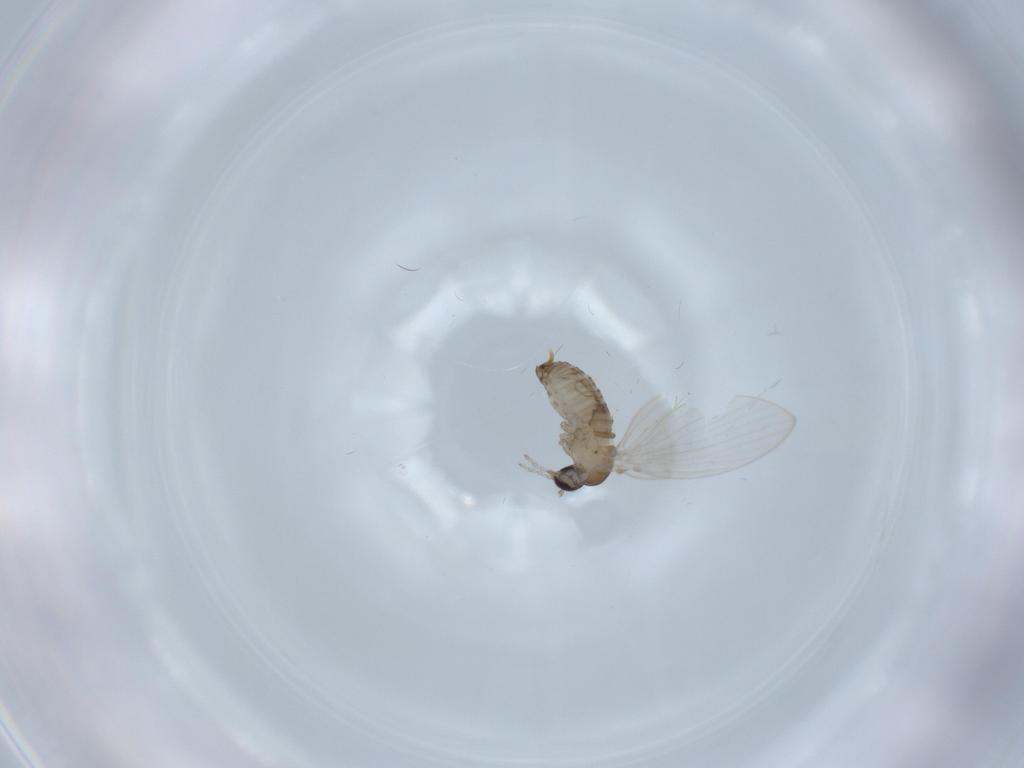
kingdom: Animalia
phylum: Arthropoda
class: Insecta
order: Diptera
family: Psychodidae
